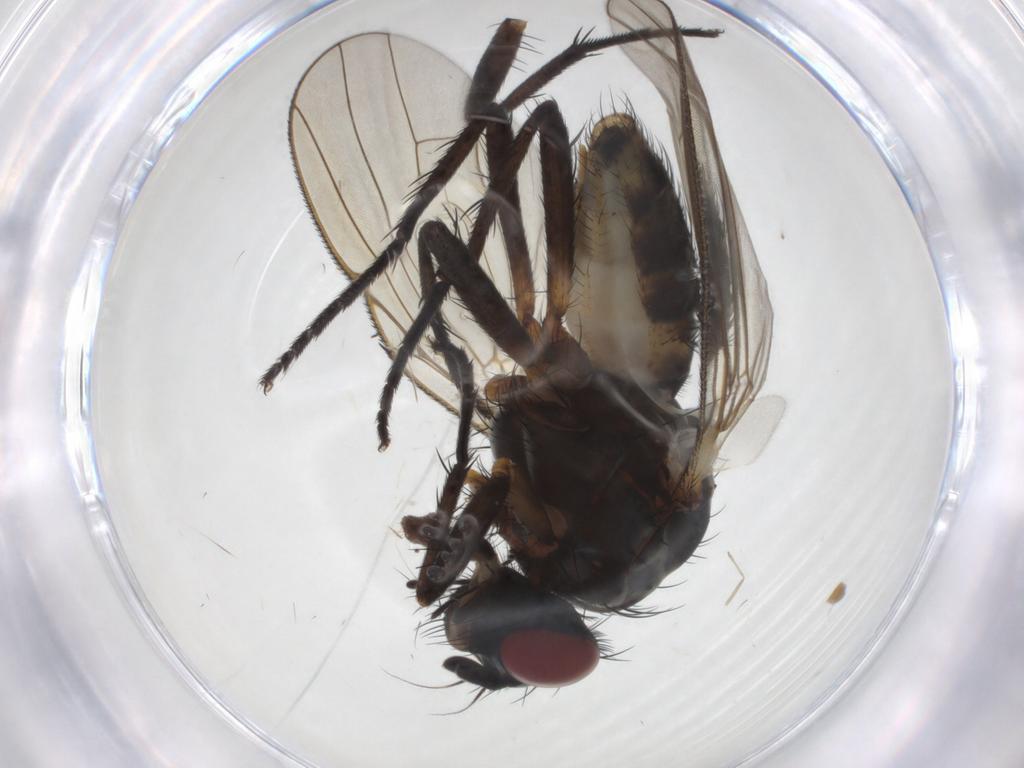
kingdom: Animalia
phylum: Arthropoda
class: Insecta
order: Diptera
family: Anthomyiidae
